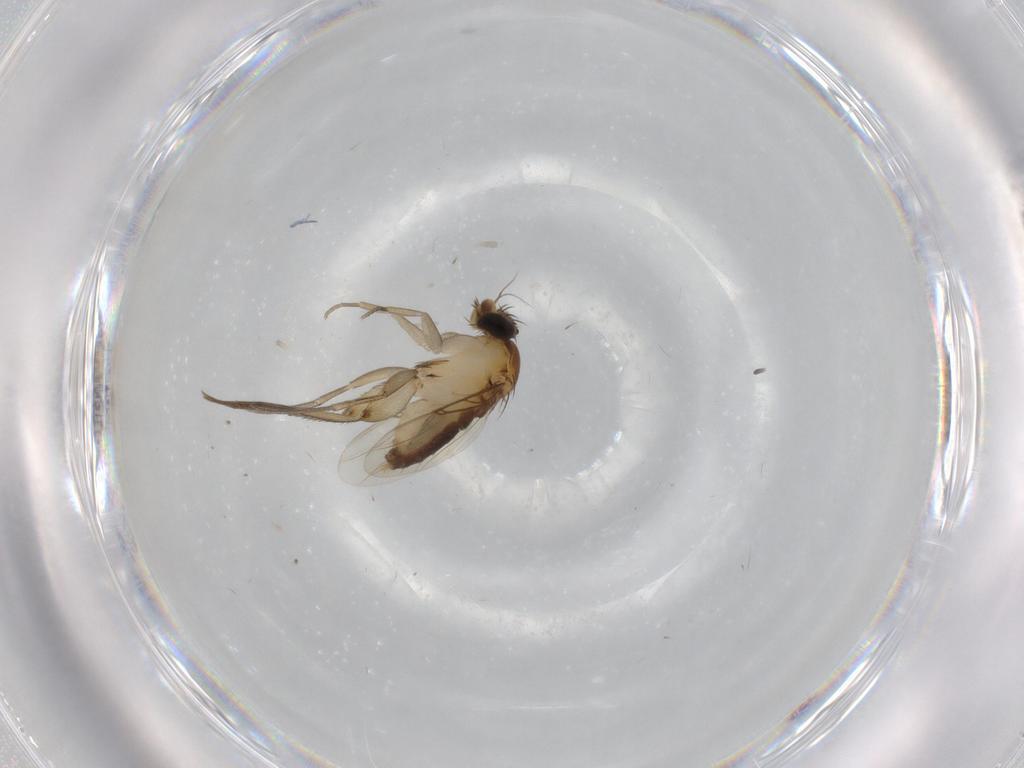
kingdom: Animalia
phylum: Arthropoda
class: Insecta
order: Diptera
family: Phoridae
